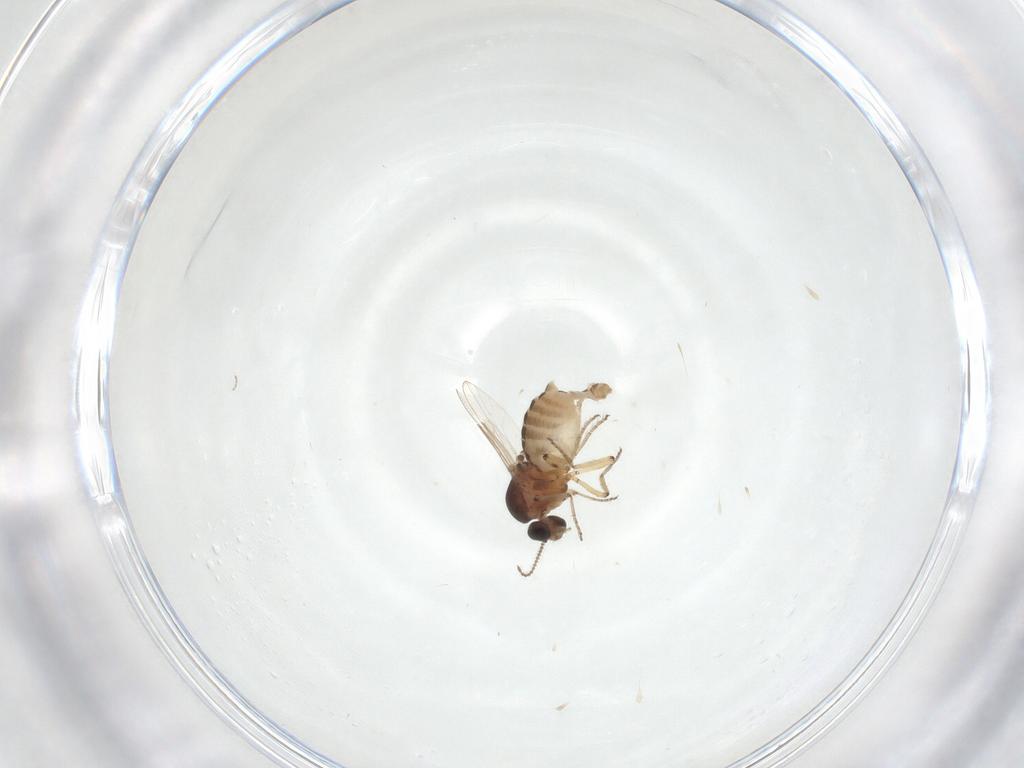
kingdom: Animalia
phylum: Arthropoda
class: Insecta
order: Diptera
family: Ceratopogonidae
